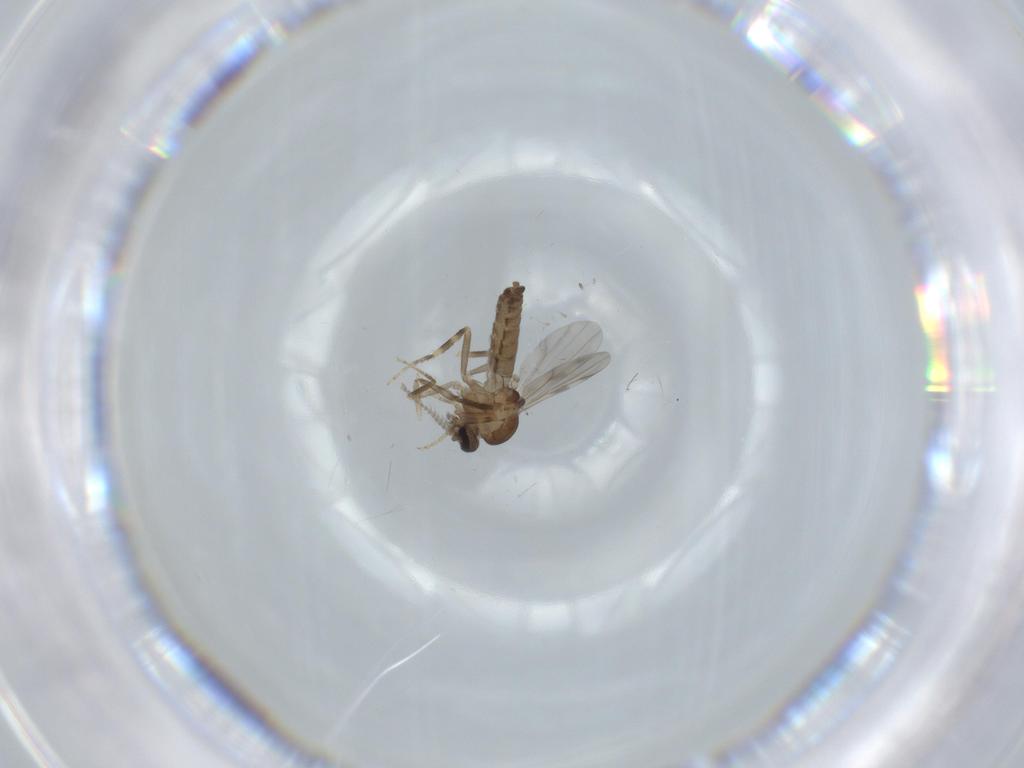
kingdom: Animalia
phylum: Arthropoda
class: Insecta
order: Diptera
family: Ceratopogonidae
